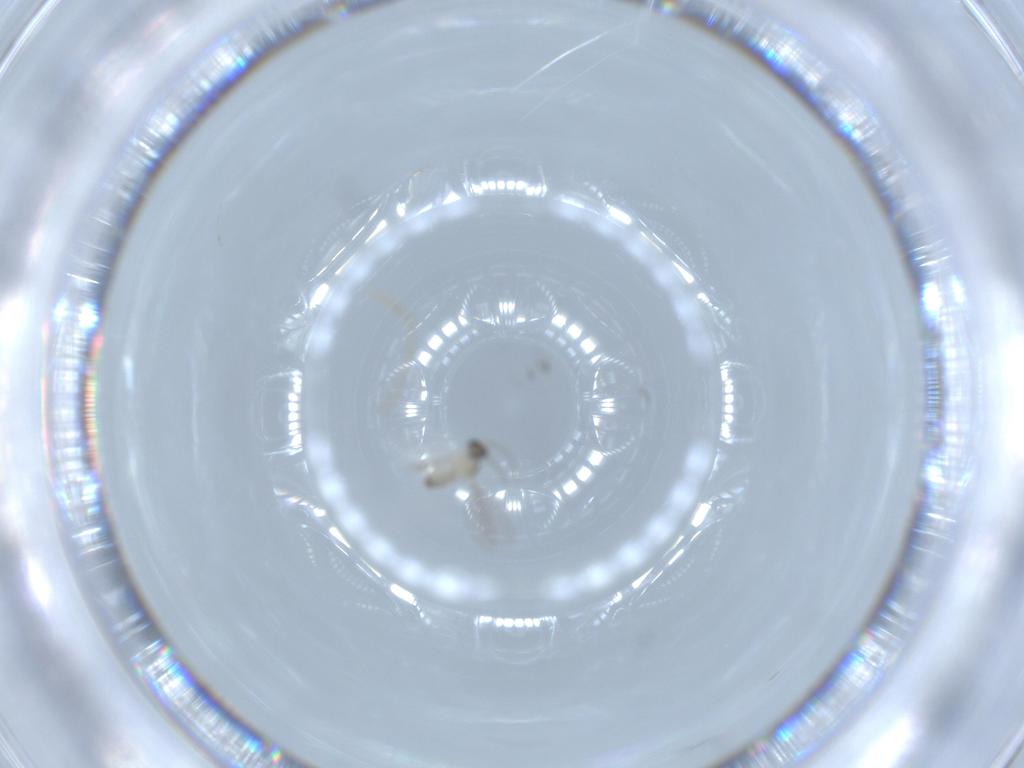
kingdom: Animalia
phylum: Arthropoda
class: Insecta
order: Diptera
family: Cecidomyiidae
